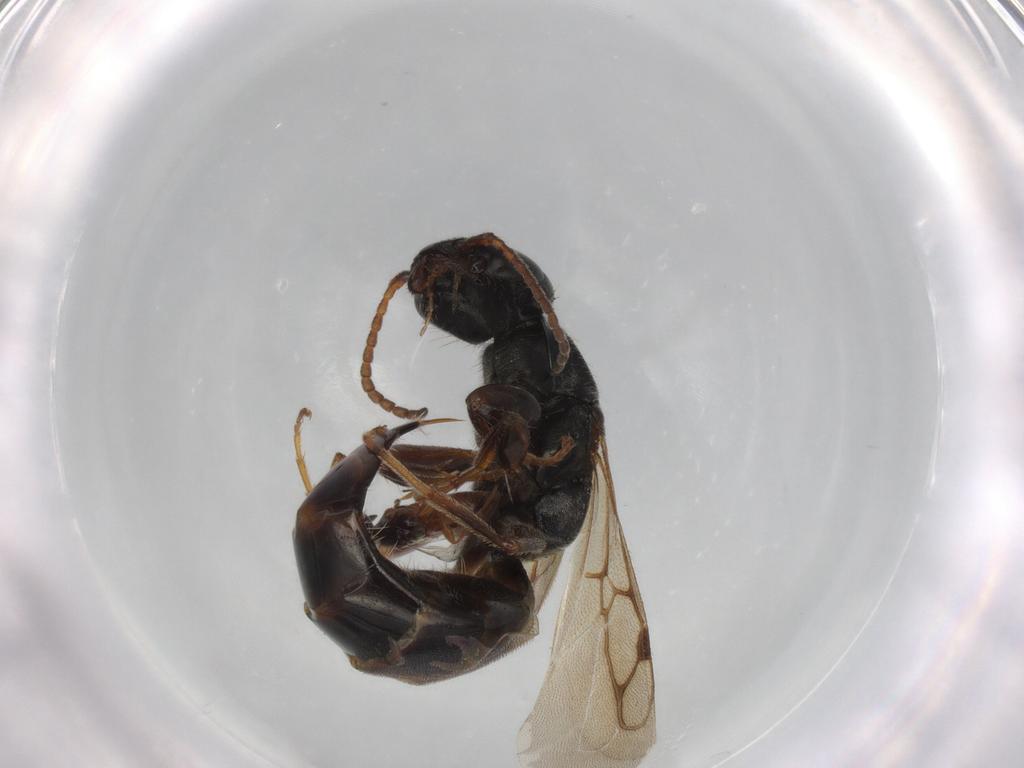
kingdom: Animalia
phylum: Arthropoda
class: Insecta
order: Hymenoptera
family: Bethylidae
